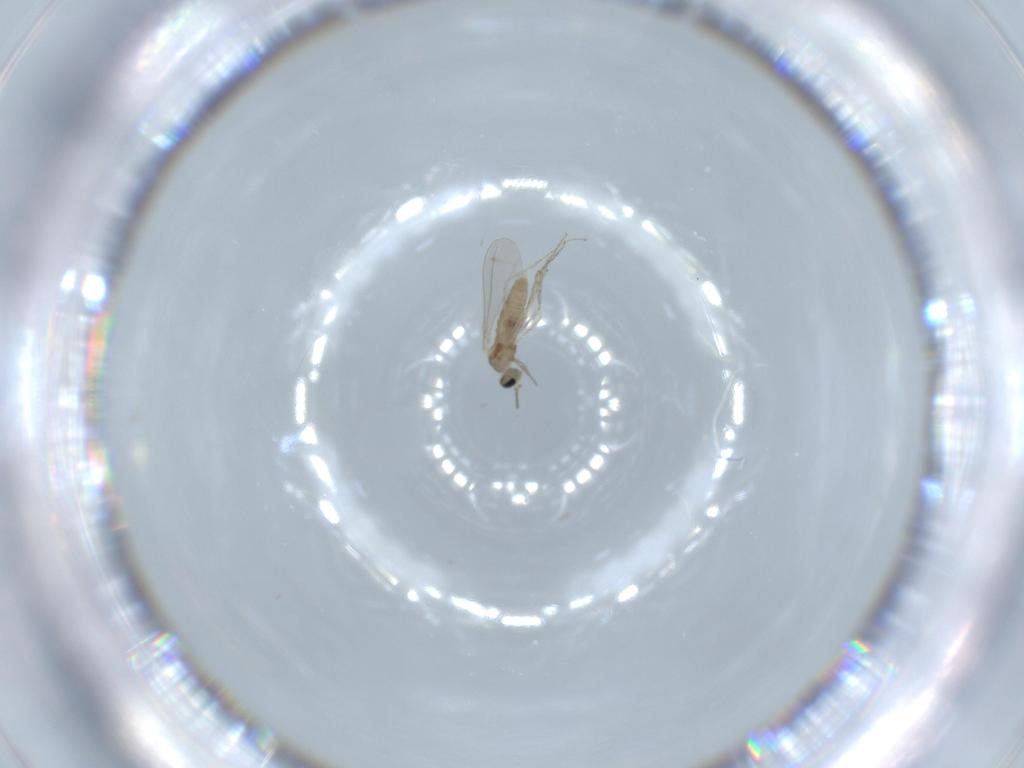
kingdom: Animalia
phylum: Arthropoda
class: Insecta
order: Diptera
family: Cecidomyiidae
